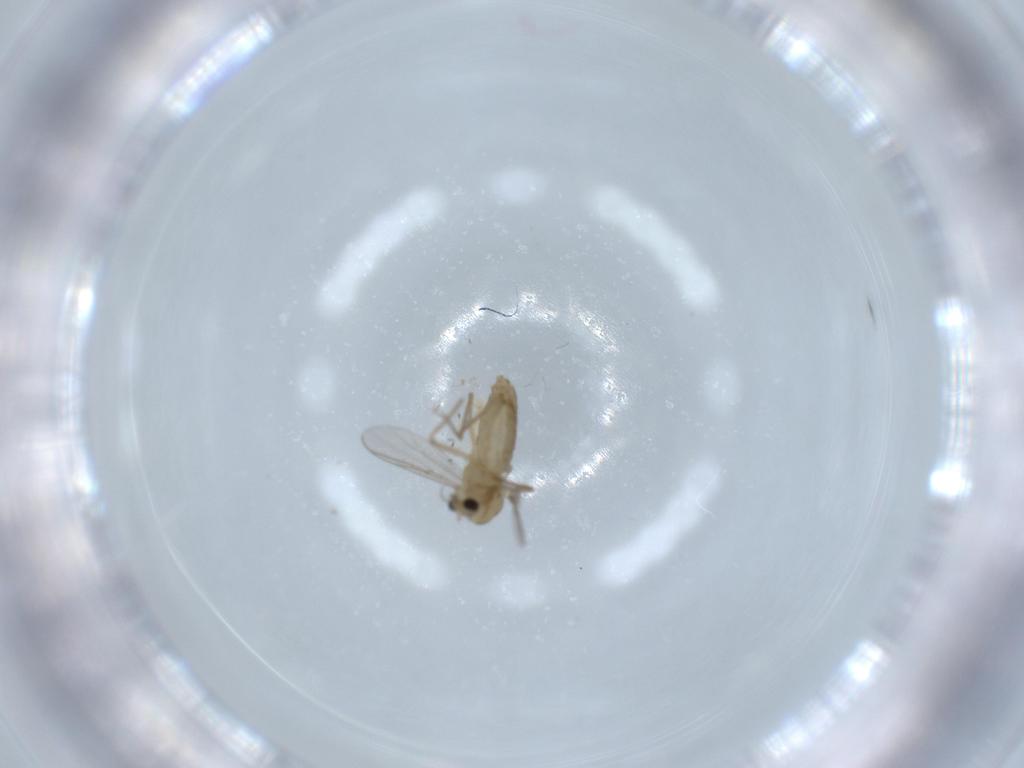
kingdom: Animalia
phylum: Arthropoda
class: Insecta
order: Diptera
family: Chironomidae
